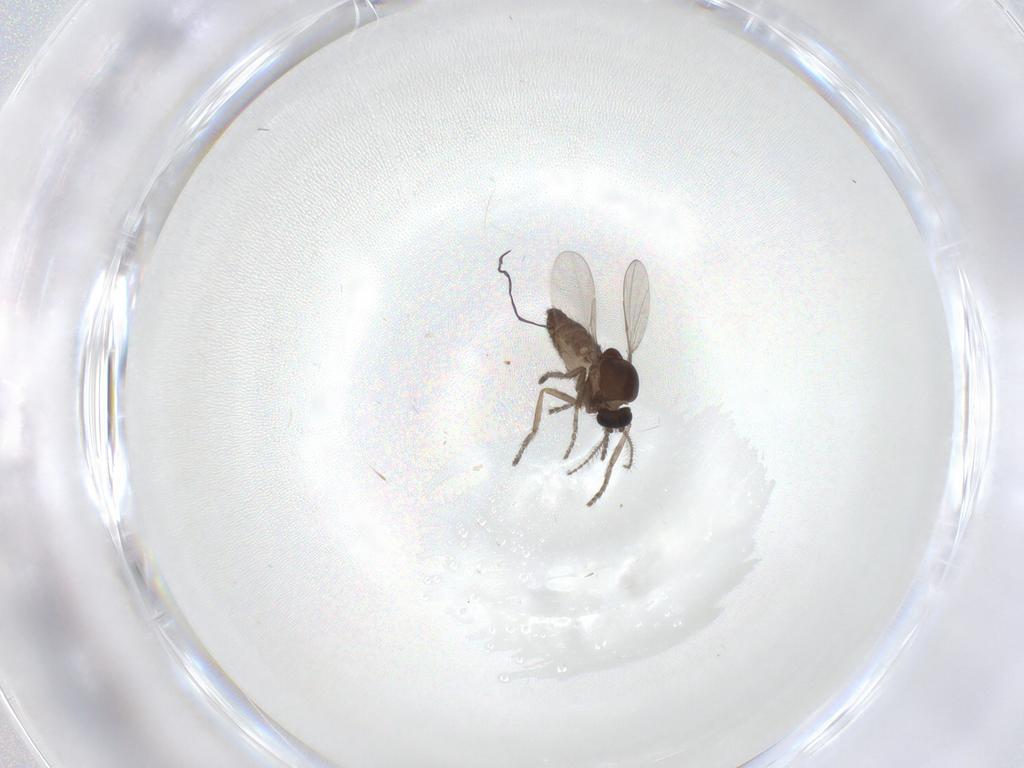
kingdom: Animalia
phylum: Arthropoda
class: Insecta
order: Diptera
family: Ceratopogonidae
